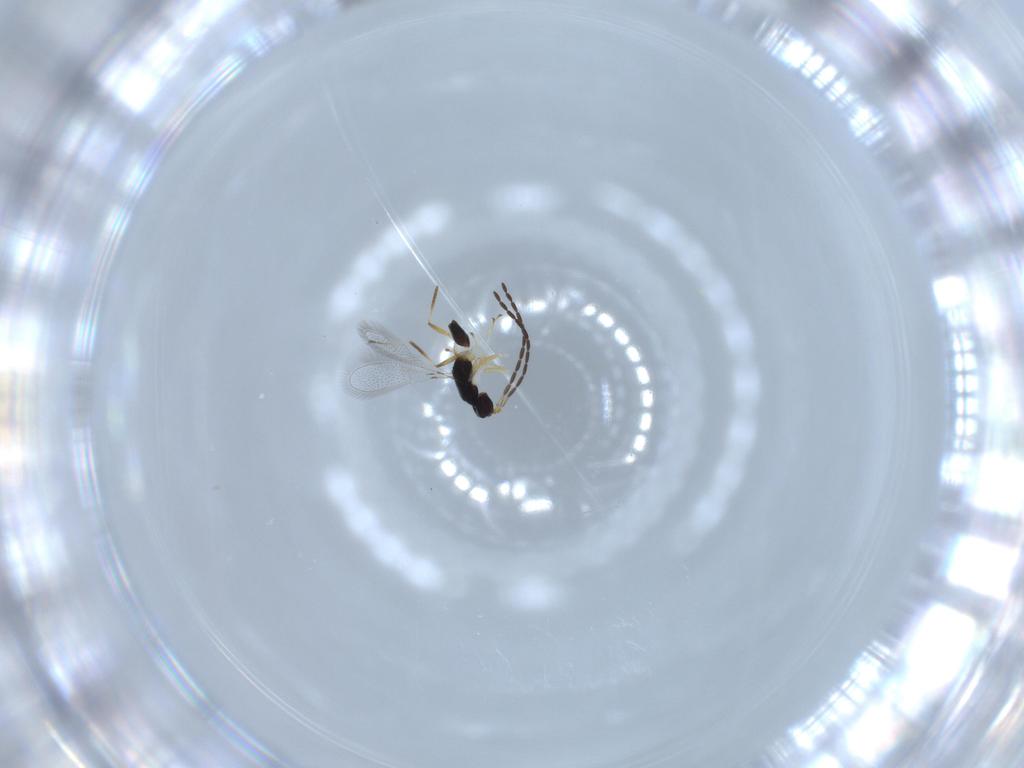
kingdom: Animalia
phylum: Arthropoda
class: Insecta
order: Hymenoptera
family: Mymaridae
